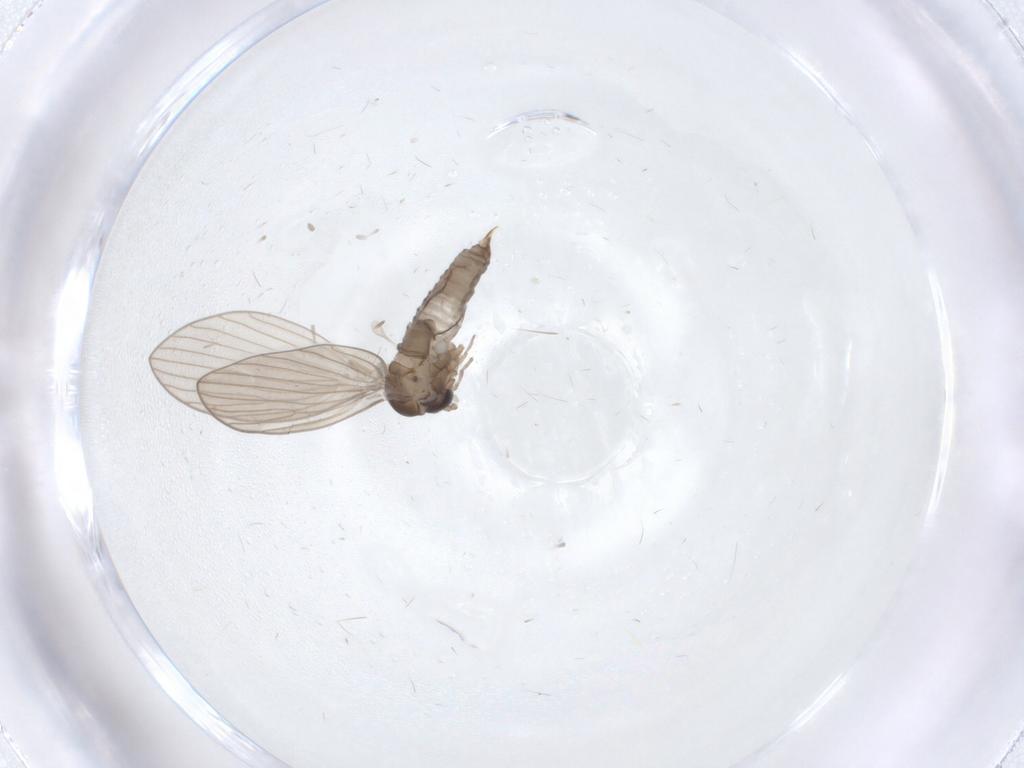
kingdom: Animalia
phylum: Arthropoda
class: Insecta
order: Diptera
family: Psychodidae
